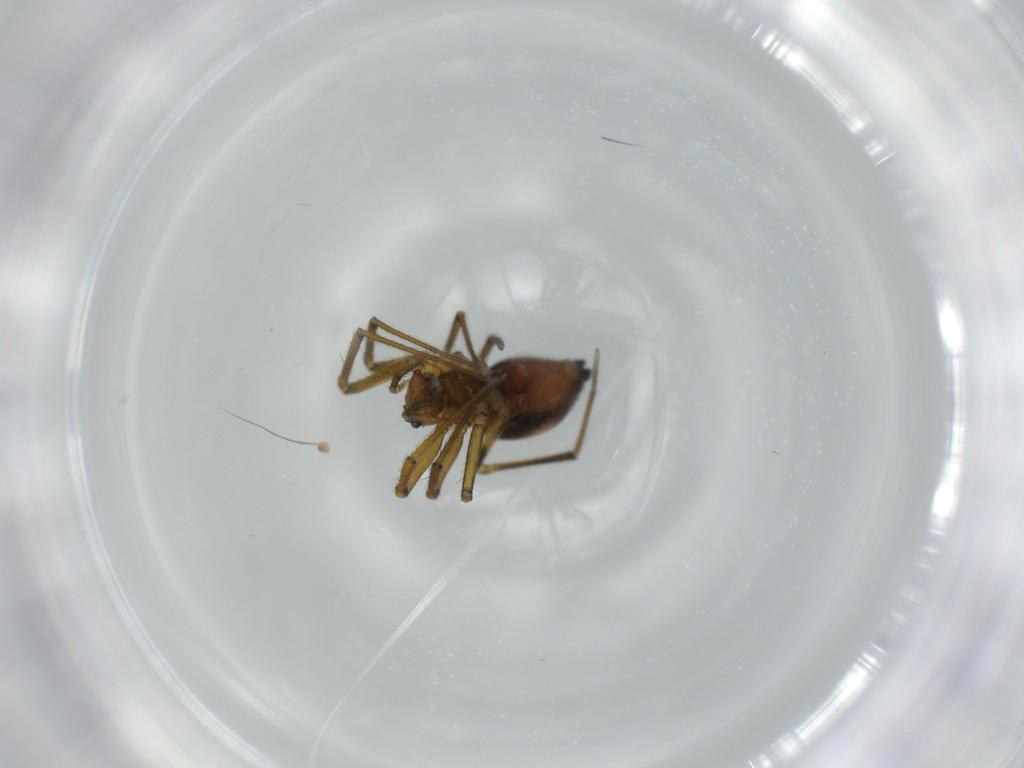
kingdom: Animalia
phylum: Arthropoda
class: Arachnida
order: Araneae
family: Linyphiidae
